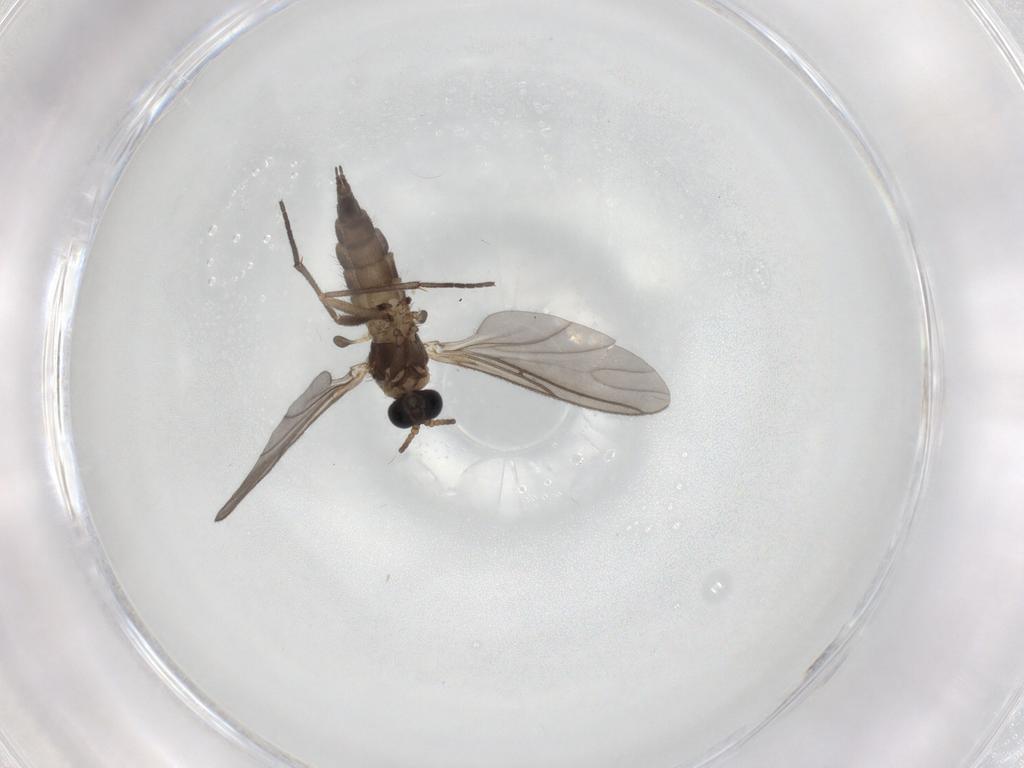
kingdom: Animalia
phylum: Arthropoda
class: Insecta
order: Diptera
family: Sciaridae
